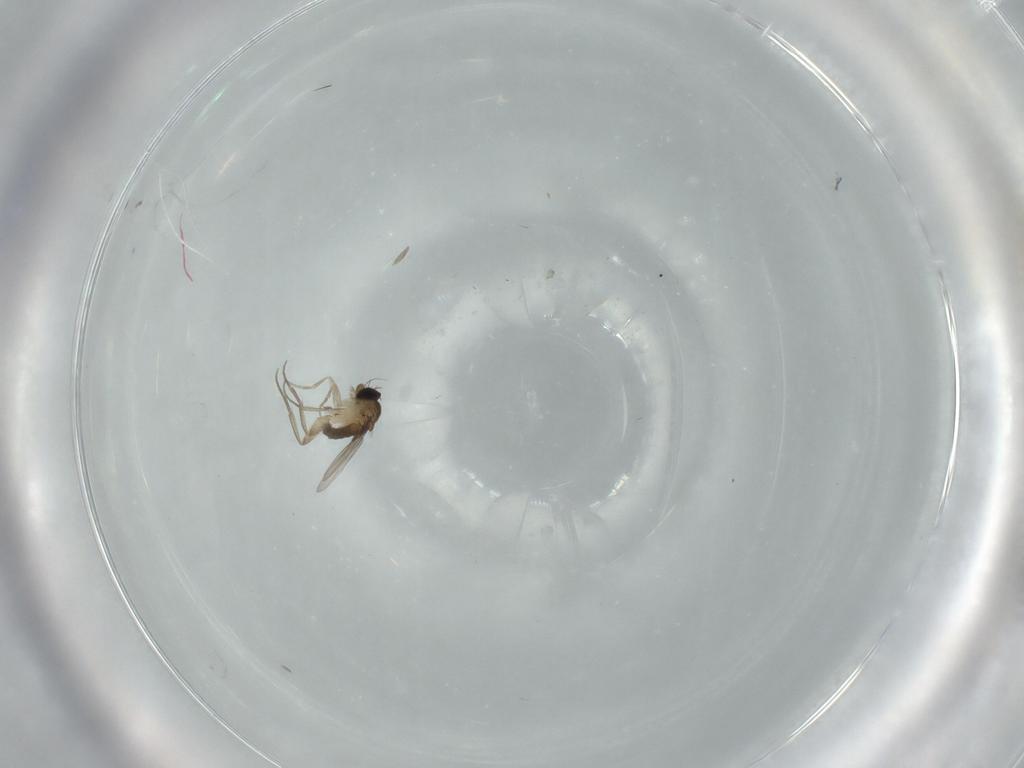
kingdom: Animalia
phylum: Arthropoda
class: Insecta
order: Diptera
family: Phoridae
